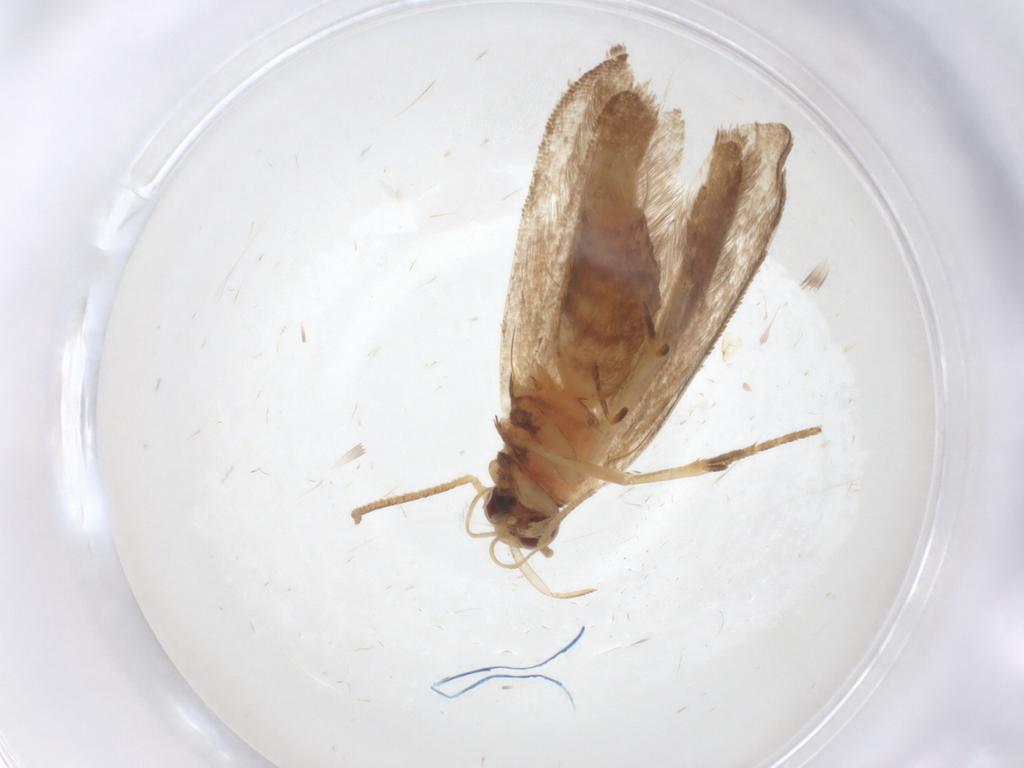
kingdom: Animalia
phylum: Arthropoda
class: Insecta
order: Lepidoptera
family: Gelechiidae
